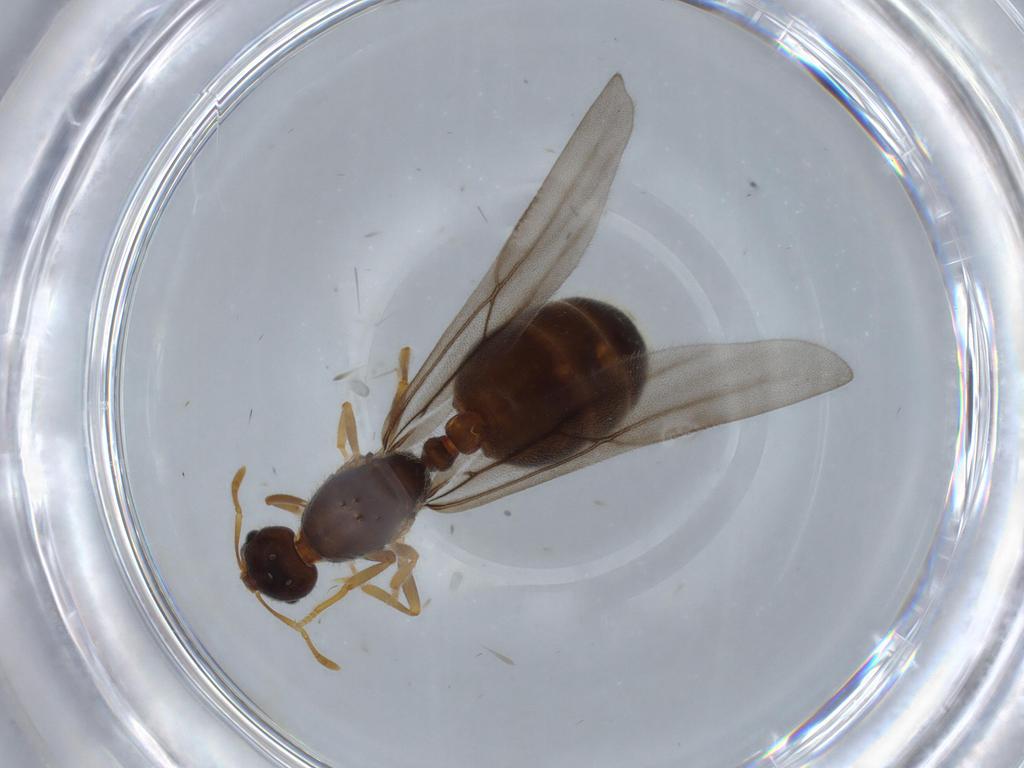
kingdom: Animalia
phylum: Arthropoda
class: Insecta
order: Hymenoptera
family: Formicidae
